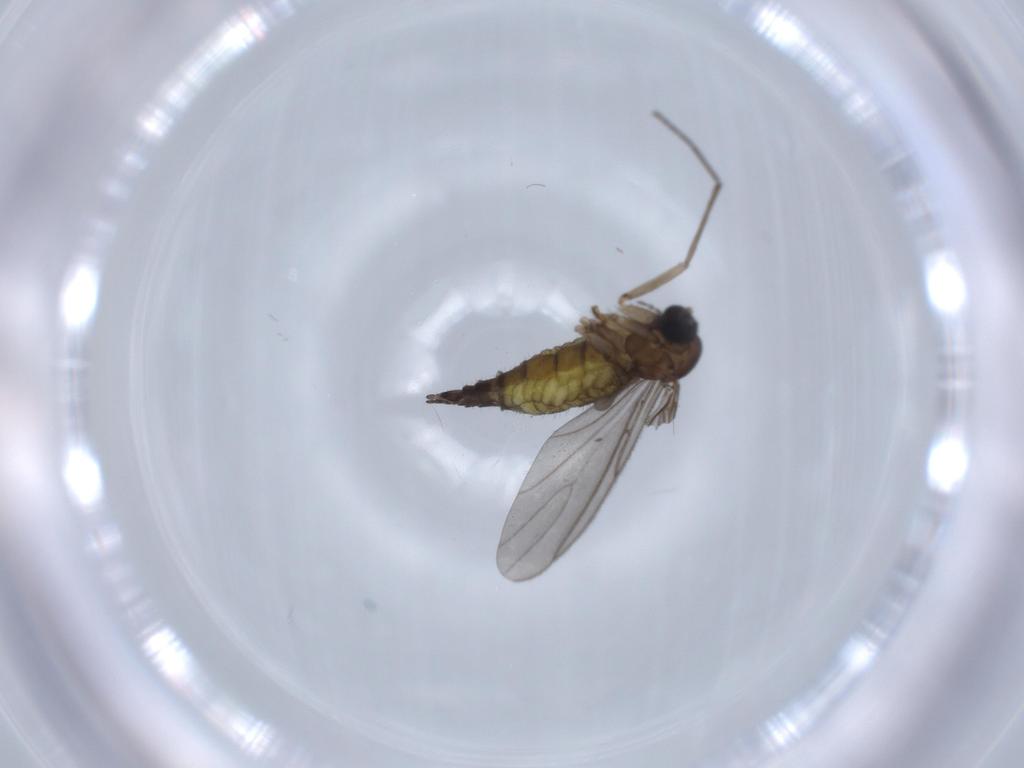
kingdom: Animalia
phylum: Arthropoda
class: Insecta
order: Diptera
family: Sciaridae
